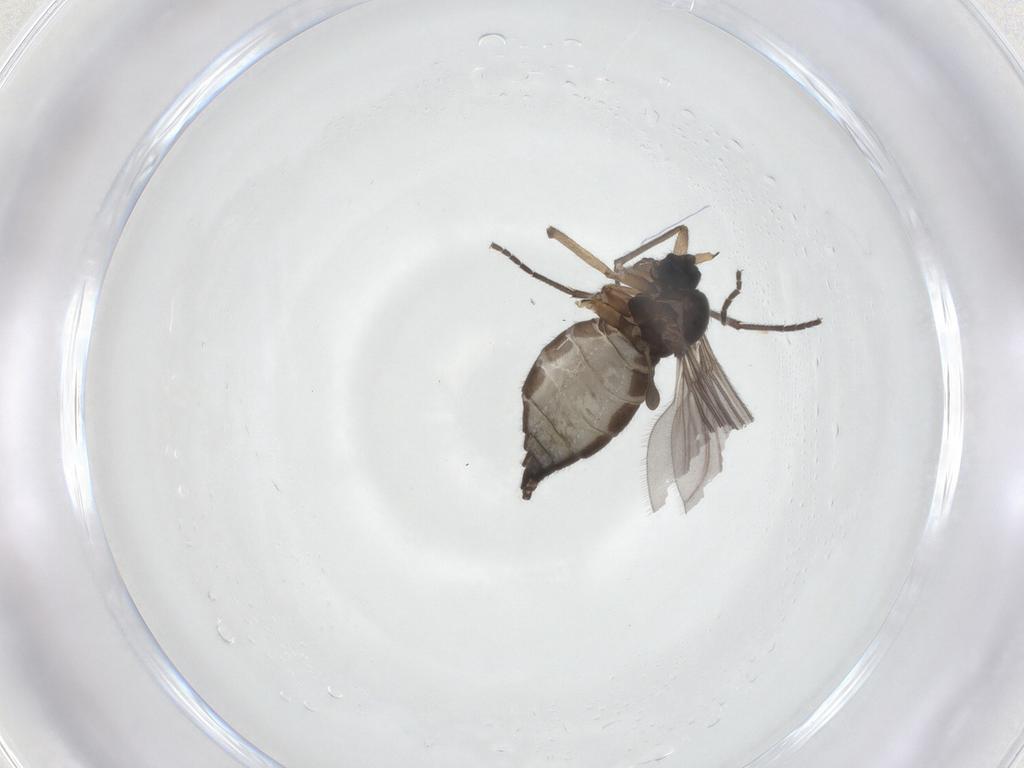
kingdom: Animalia
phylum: Arthropoda
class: Insecta
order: Diptera
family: Sciaridae
